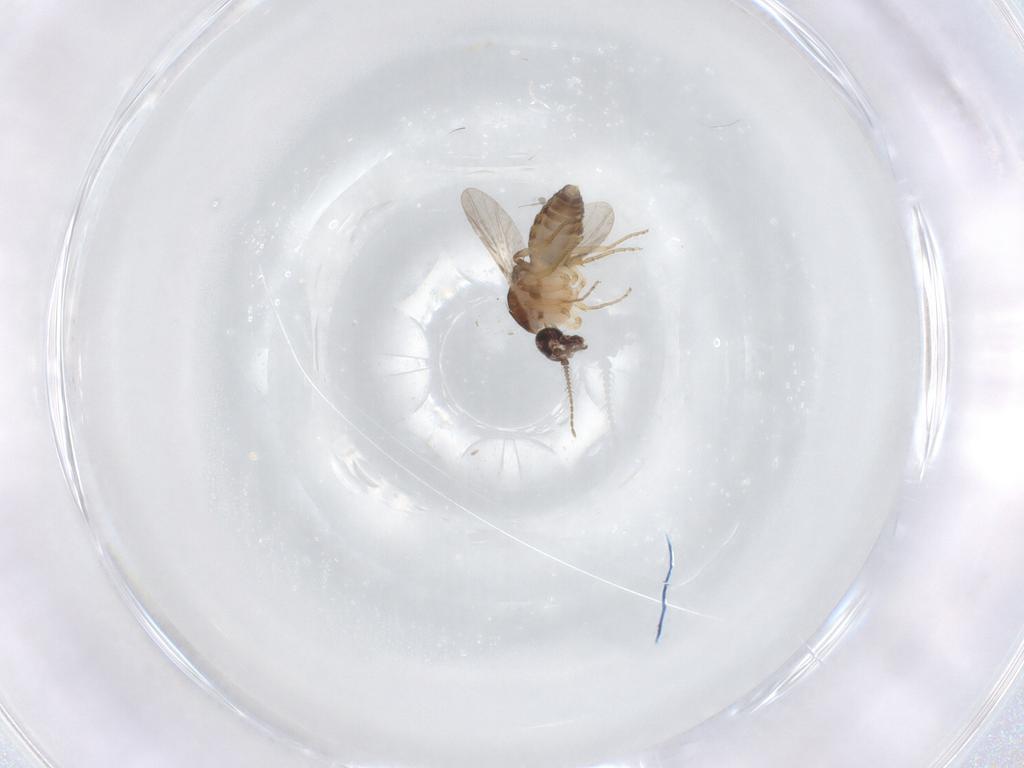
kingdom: Animalia
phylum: Arthropoda
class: Insecta
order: Diptera
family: Ceratopogonidae
